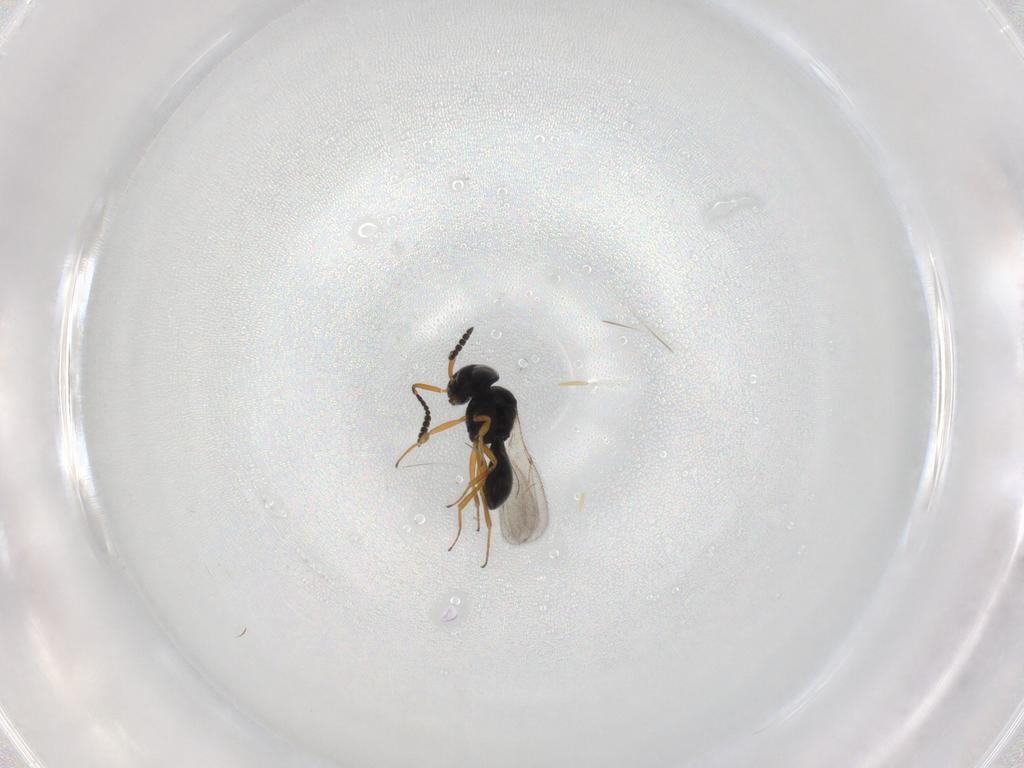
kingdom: Animalia
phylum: Arthropoda
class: Insecta
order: Hymenoptera
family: Scelionidae
